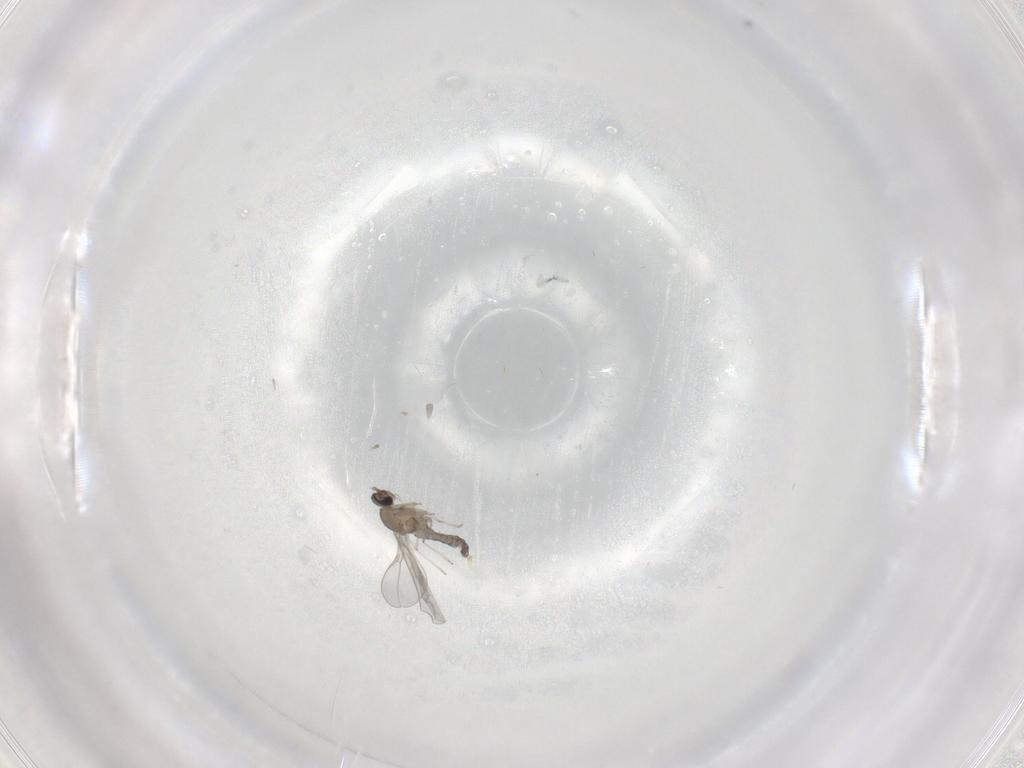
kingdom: Animalia
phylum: Arthropoda
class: Insecta
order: Diptera
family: Cecidomyiidae
